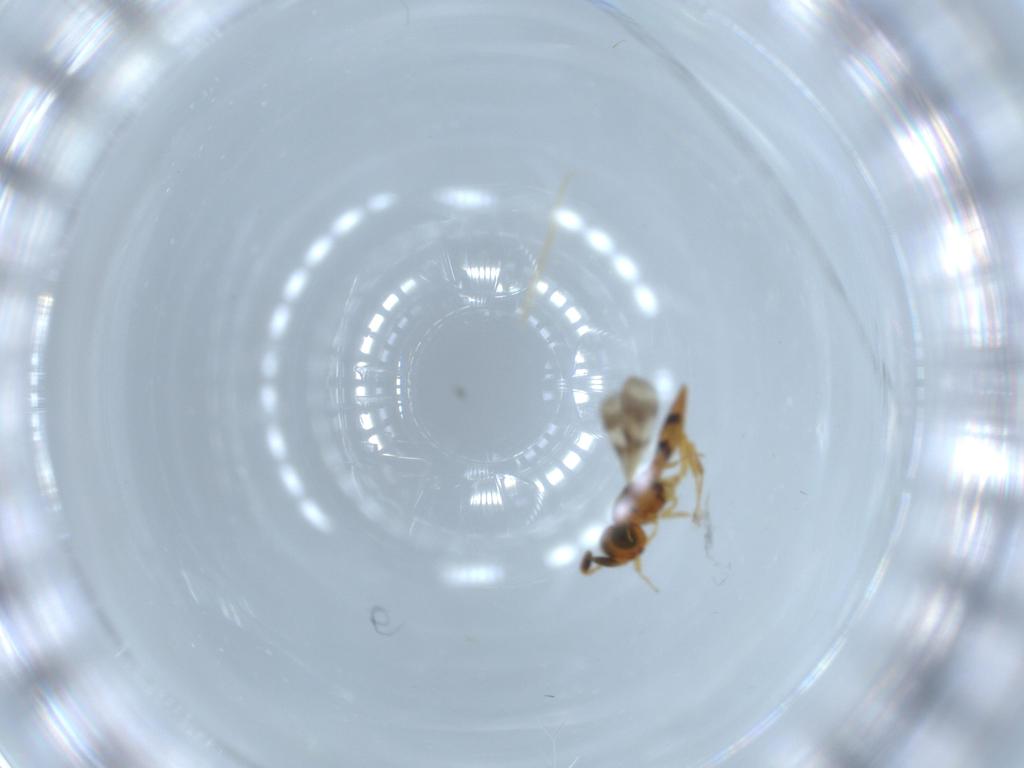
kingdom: Animalia
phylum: Arthropoda
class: Insecta
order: Hymenoptera
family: Scelionidae
